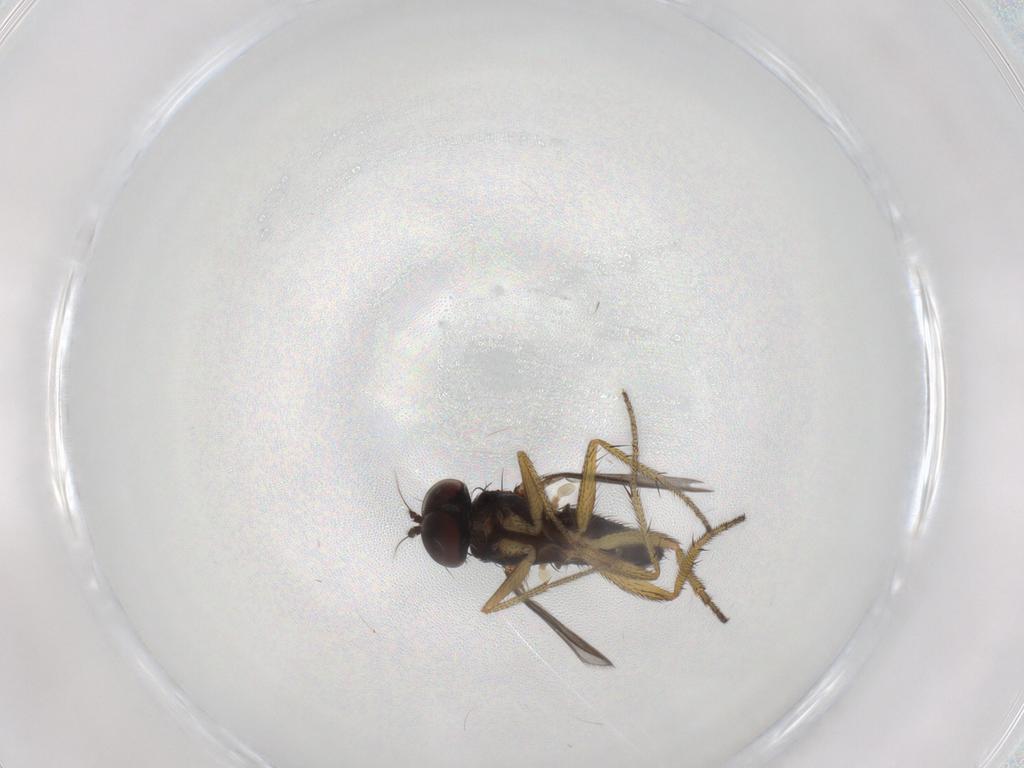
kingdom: Animalia
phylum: Arthropoda
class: Insecta
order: Diptera
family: Dolichopodidae
